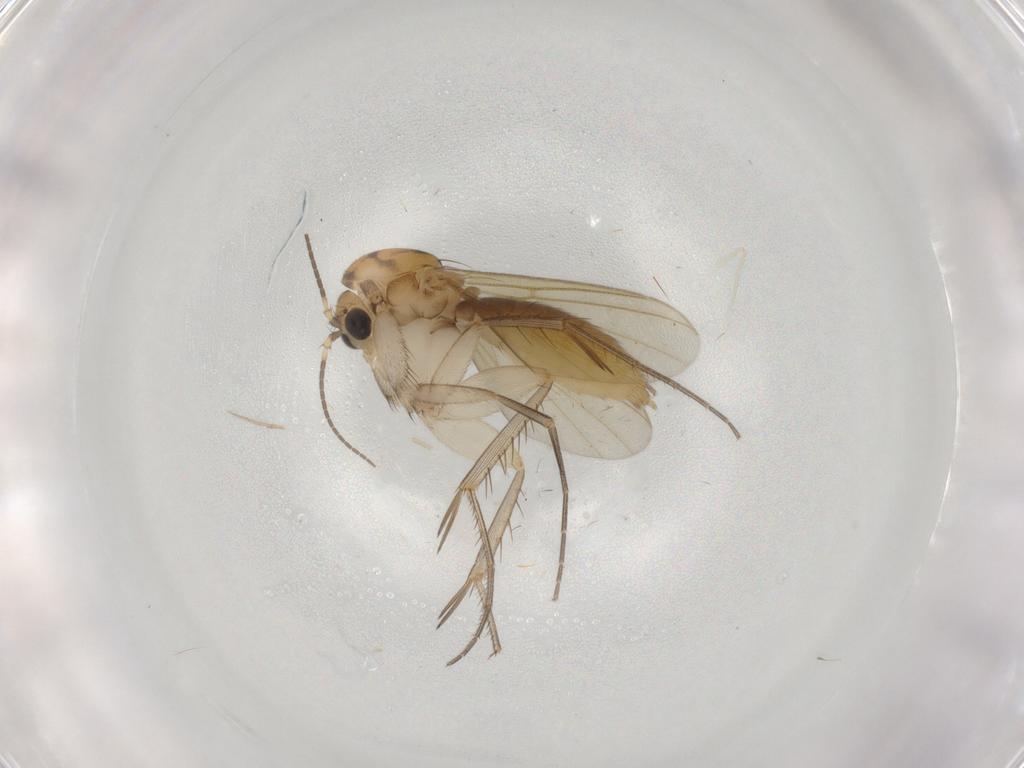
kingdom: Animalia
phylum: Arthropoda
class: Insecta
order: Diptera
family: Mycetophilidae
